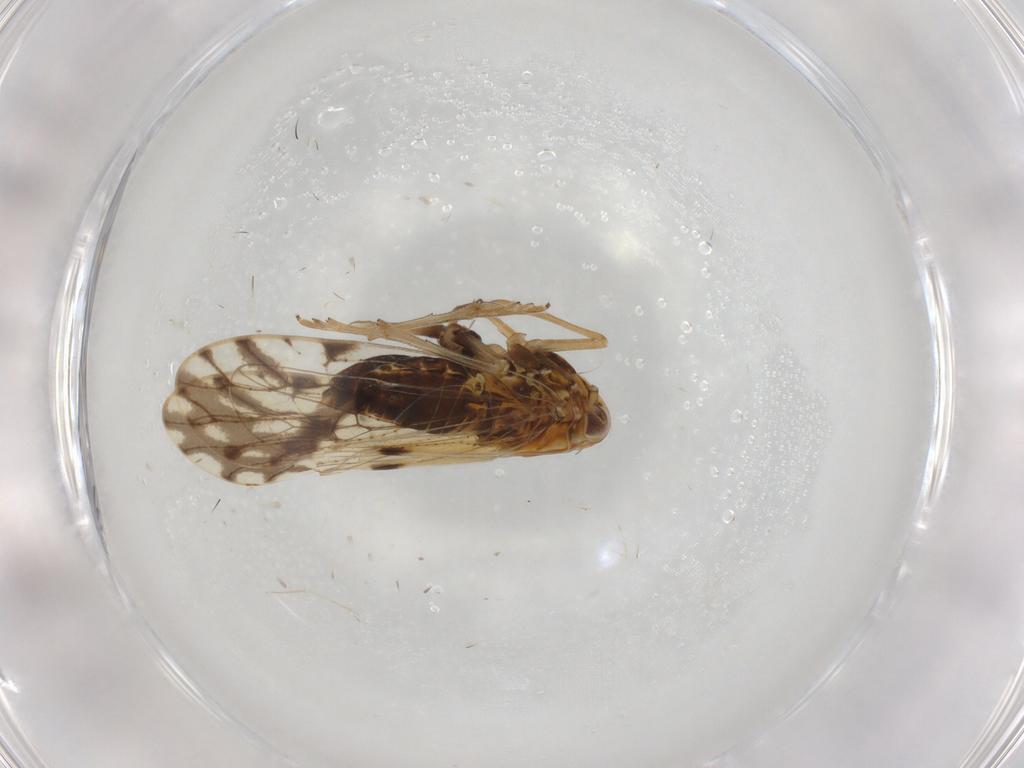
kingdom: Animalia
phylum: Arthropoda
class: Insecta
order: Hemiptera
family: Delphacidae
